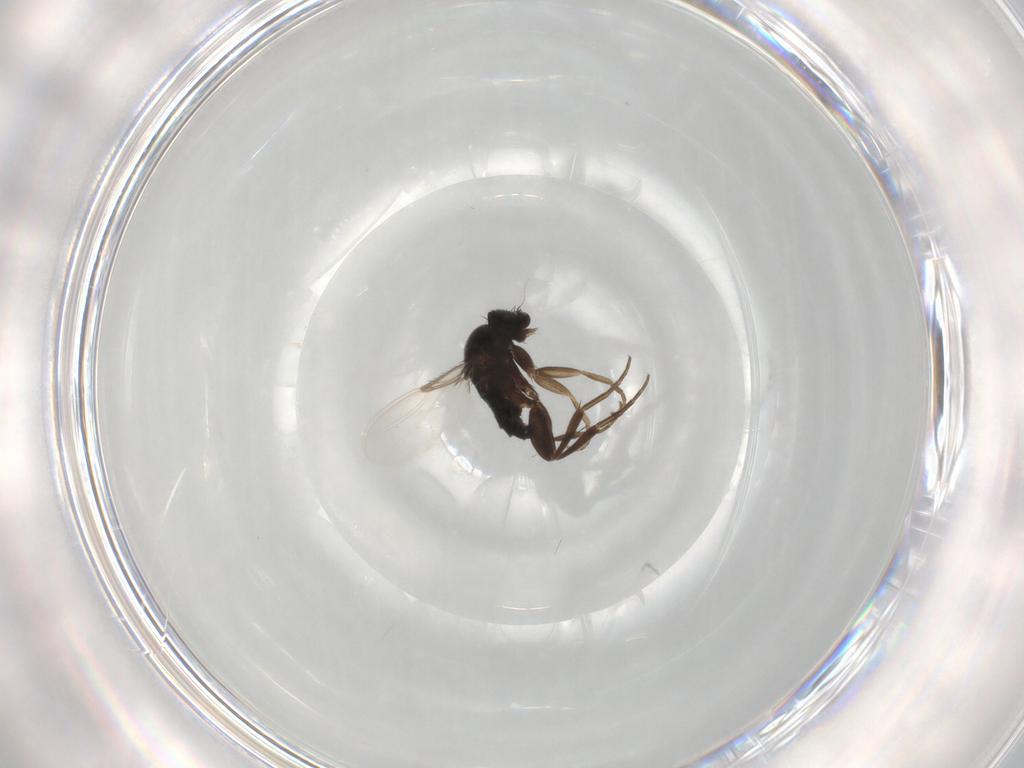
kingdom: Animalia
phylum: Arthropoda
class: Insecta
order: Diptera
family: Phoridae
